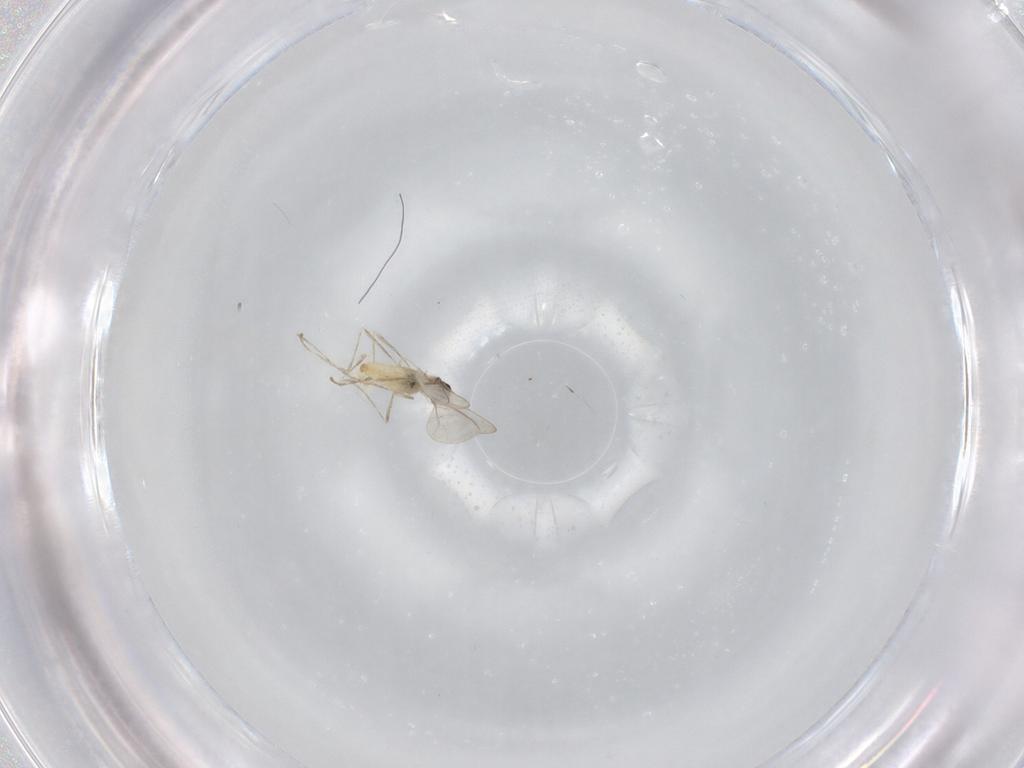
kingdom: Animalia
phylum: Arthropoda
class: Insecta
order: Diptera
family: Cecidomyiidae
